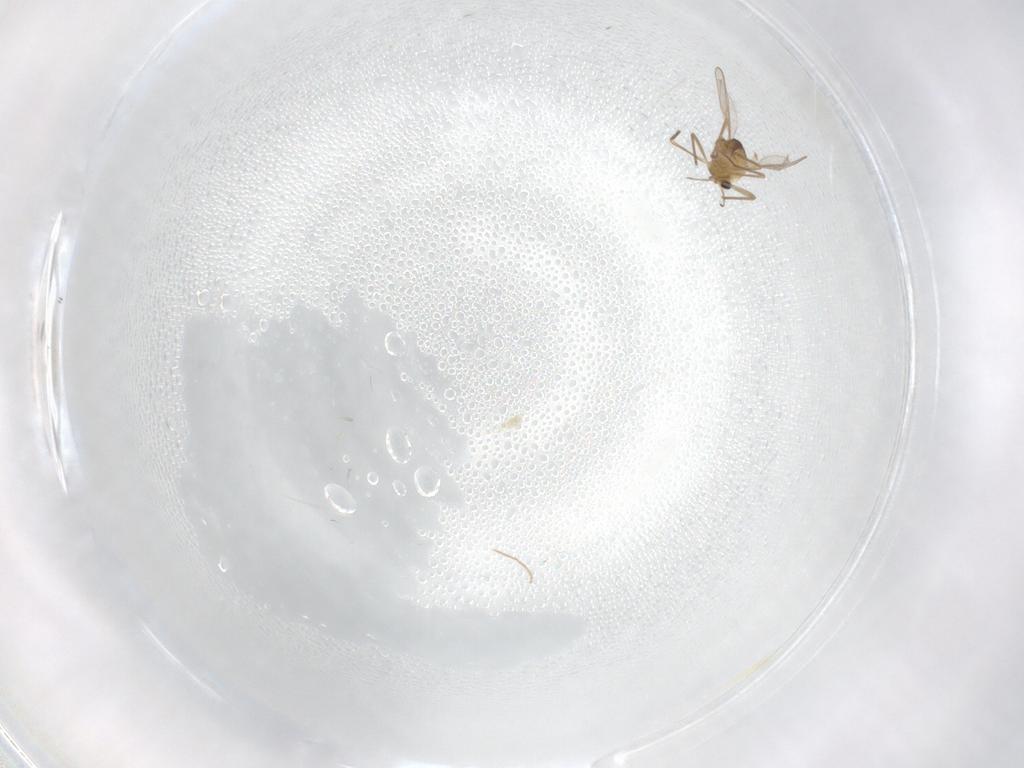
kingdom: Animalia
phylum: Arthropoda
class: Insecta
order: Diptera
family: Chironomidae
